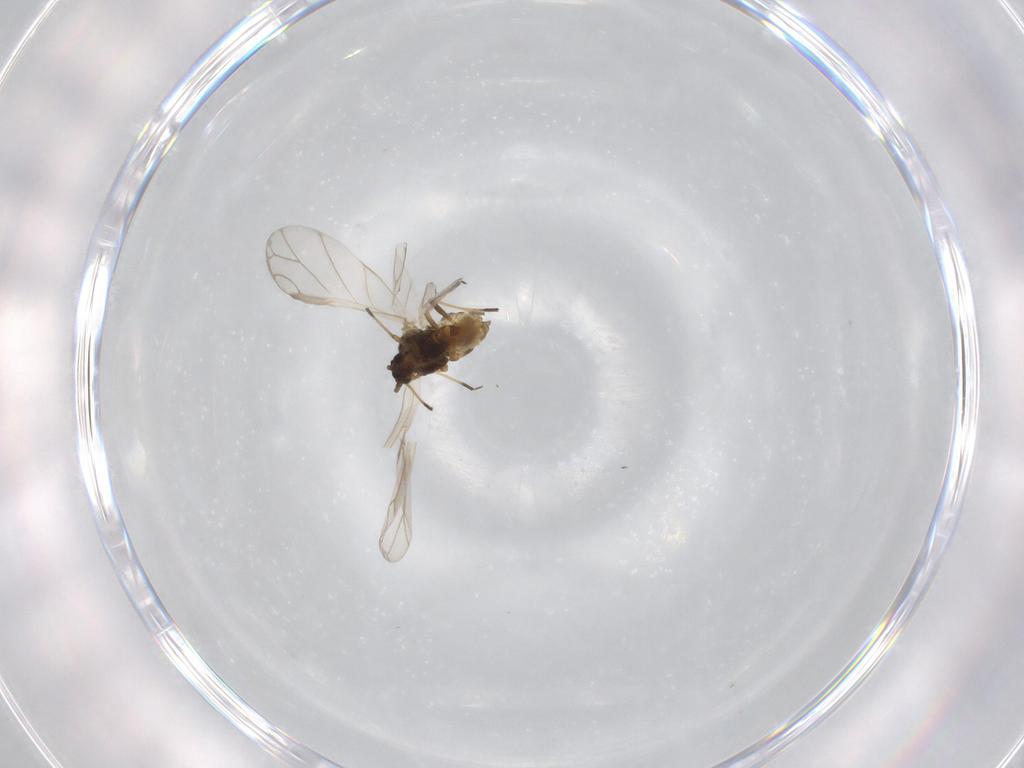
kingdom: Animalia
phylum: Arthropoda
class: Insecta
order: Hemiptera
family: Aphididae
